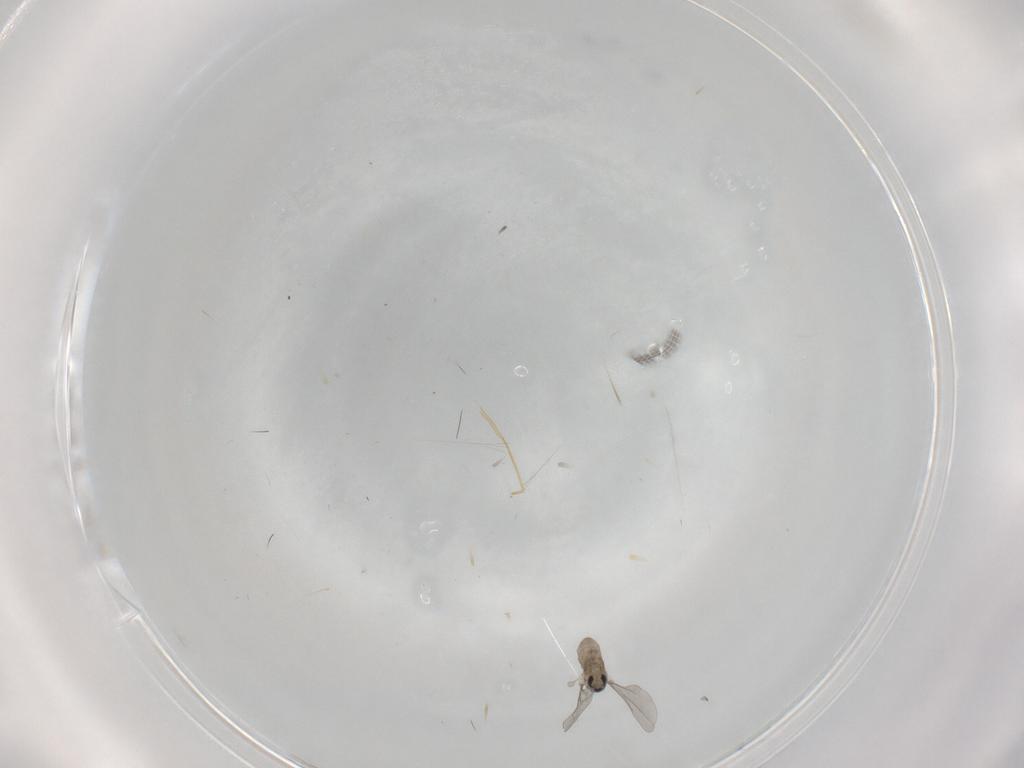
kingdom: Animalia
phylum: Arthropoda
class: Insecta
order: Diptera
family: Cecidomyiidae
